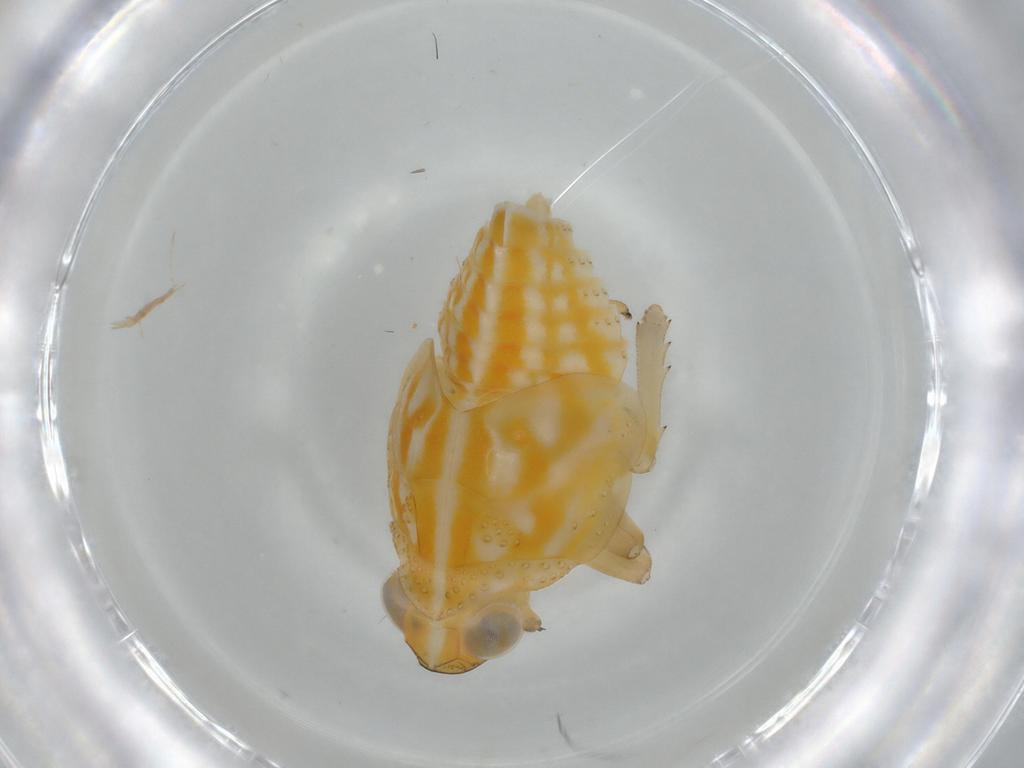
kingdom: Animalia
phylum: Arthropoda
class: Insecta
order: Hemiptera
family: Issidae
